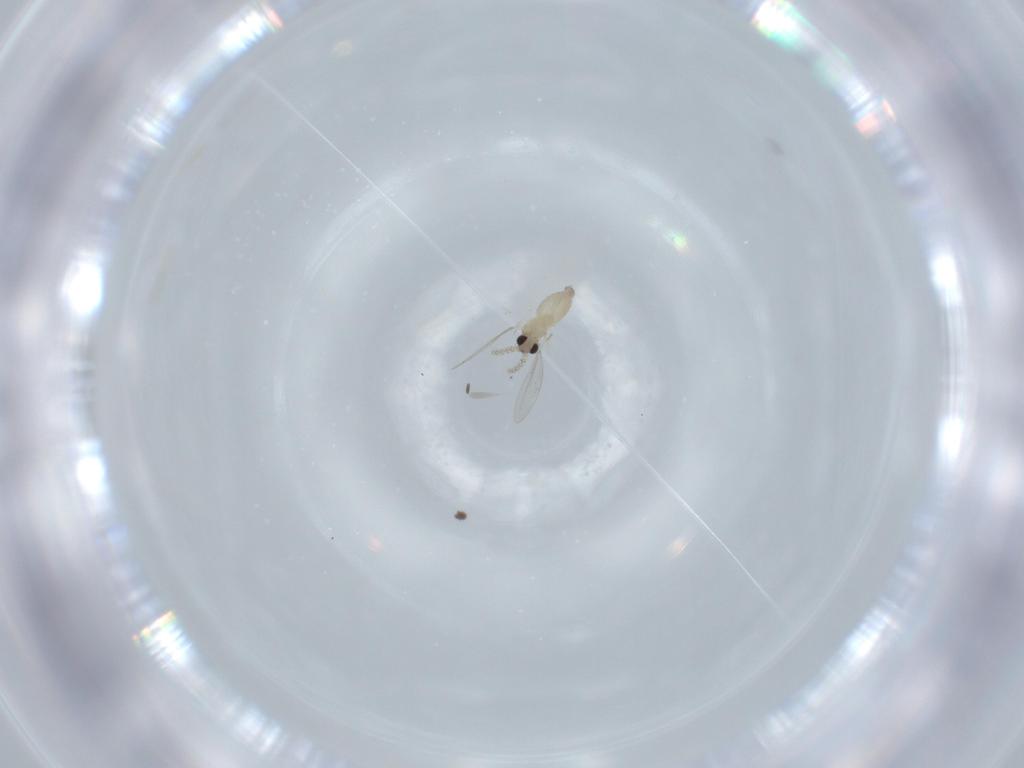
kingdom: Animalia
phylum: Arthropoda
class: Insecta
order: Diptera
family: Cecidomyiidae
